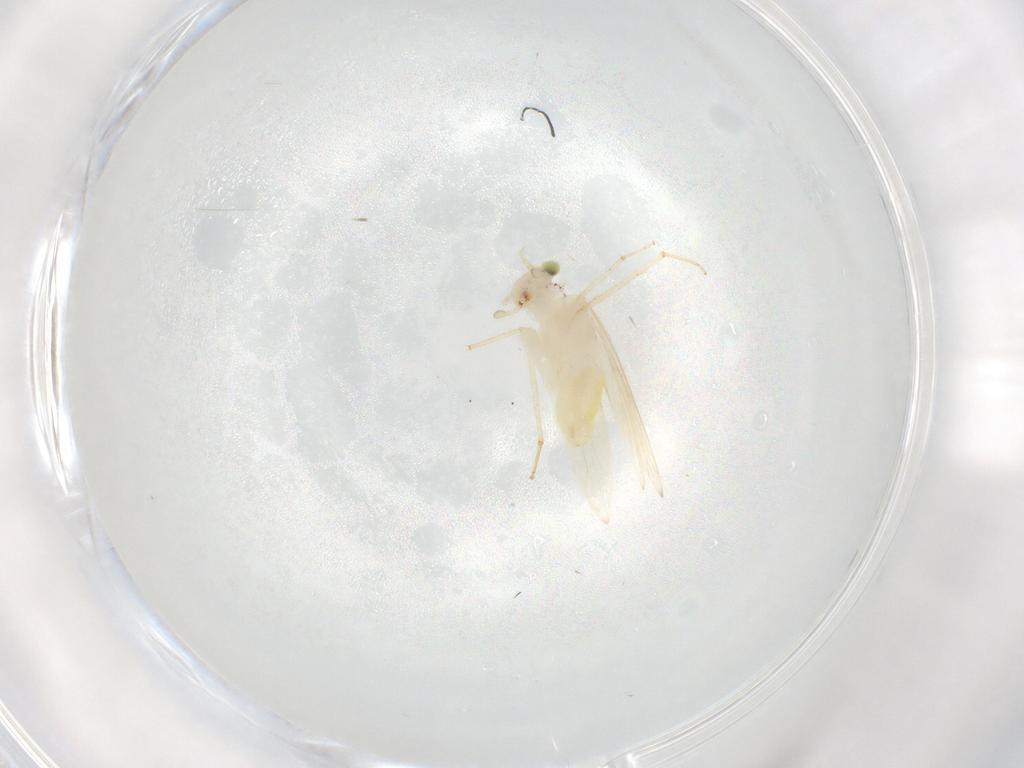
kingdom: Animalia
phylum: Arthropoda
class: Insecta
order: Psocodea
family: Lepidopsocidae
